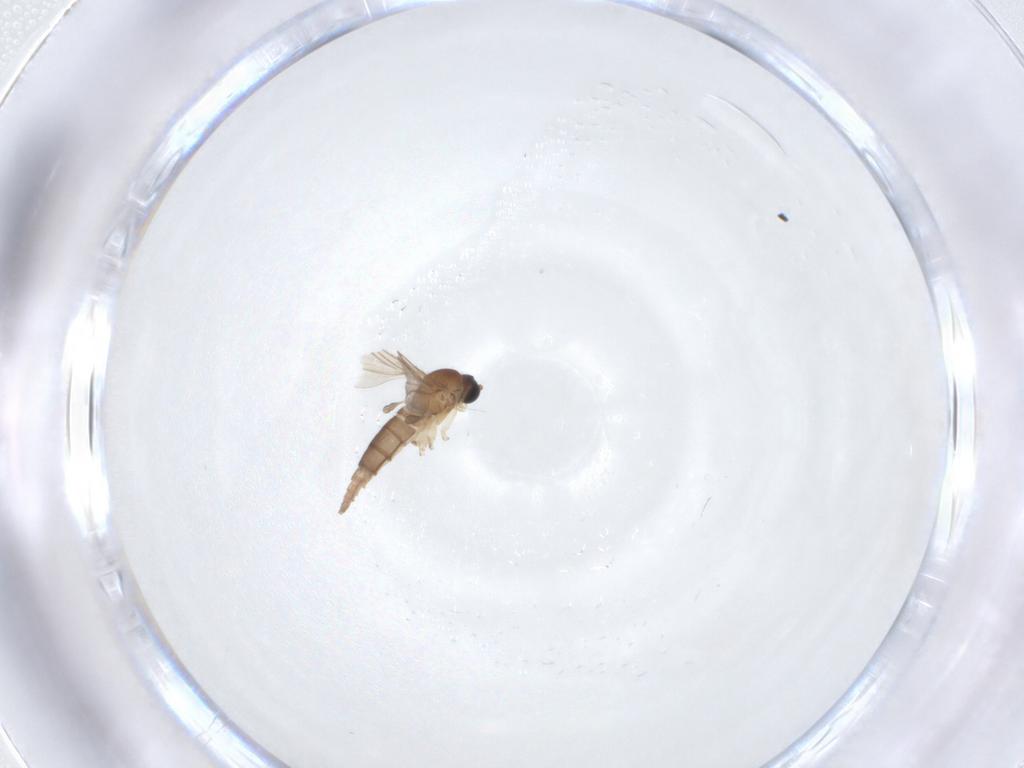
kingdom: Animalia
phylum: Arthropoda
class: Insecta
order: Diptera
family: Sciaridae
